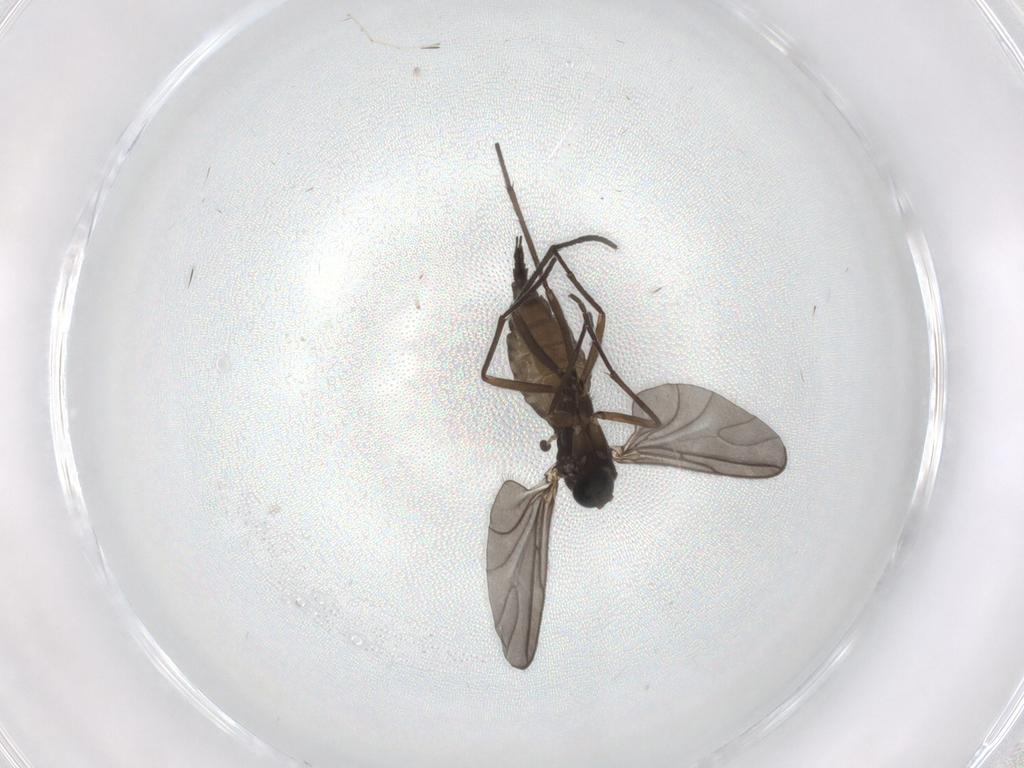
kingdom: Animalia
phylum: Arthropoda
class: Insecta
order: Diptera
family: Sciaridae
